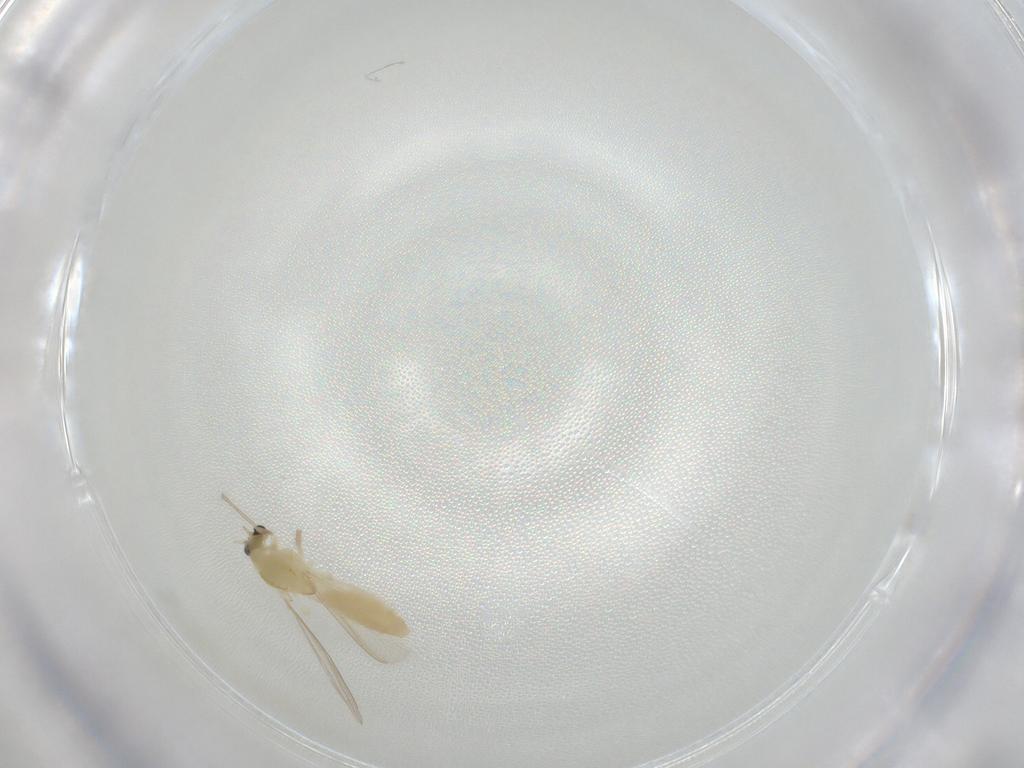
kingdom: Animalia
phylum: Arthropoda
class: Insecta
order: Diptera
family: Chironomidae
